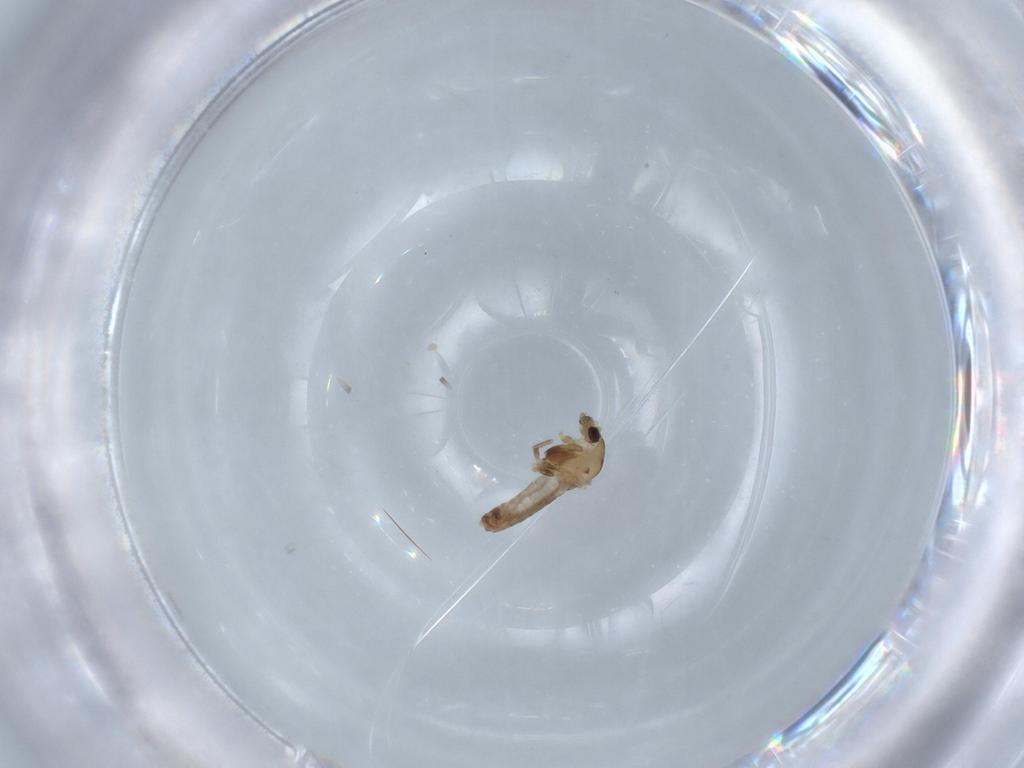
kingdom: Animalia
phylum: Arthropoda
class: Insecta
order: Diptera
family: Chironomidae
